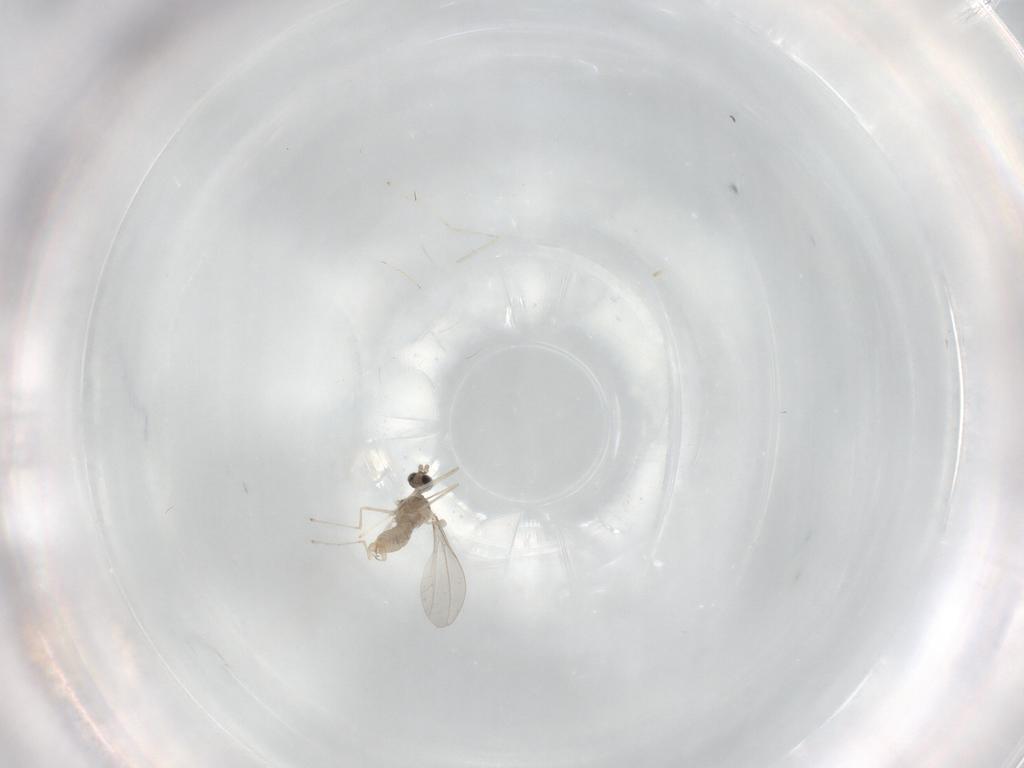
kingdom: Animalia
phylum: Arthropoda
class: Insecta
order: Diptera
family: Cecidomyiidae
